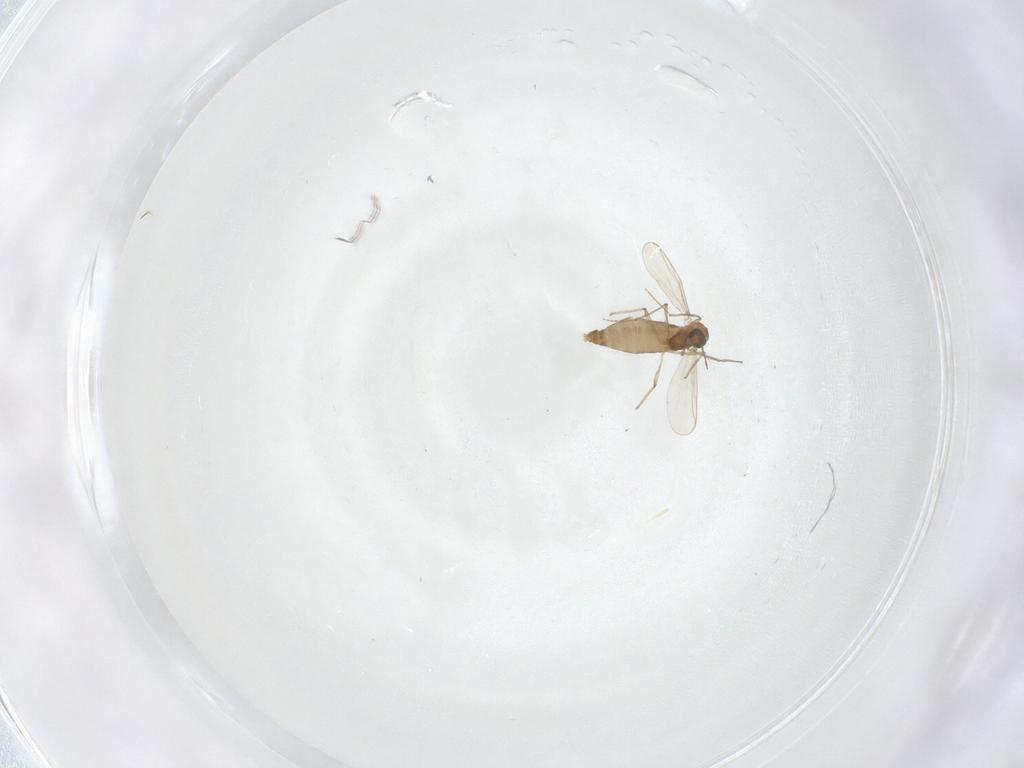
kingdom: Animalia
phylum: Arthropoda
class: Insecta
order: Diptera
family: Chironomidae
